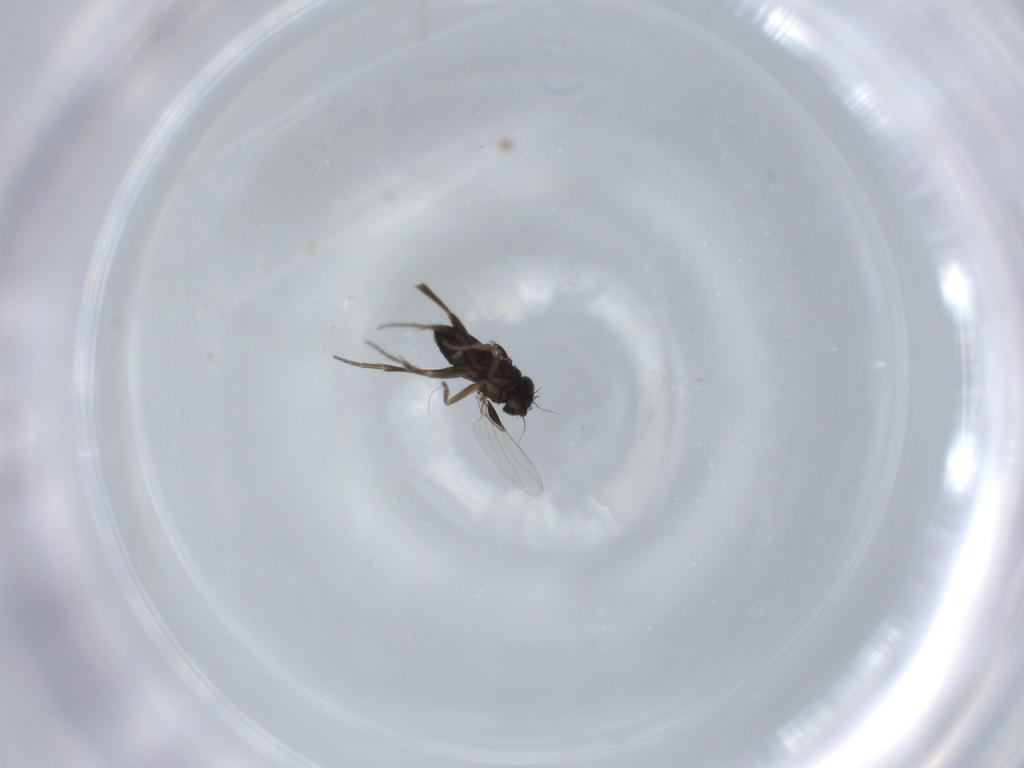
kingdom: Animalia
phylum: Arthropoda
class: Insecta
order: Diptera
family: Phoridae
